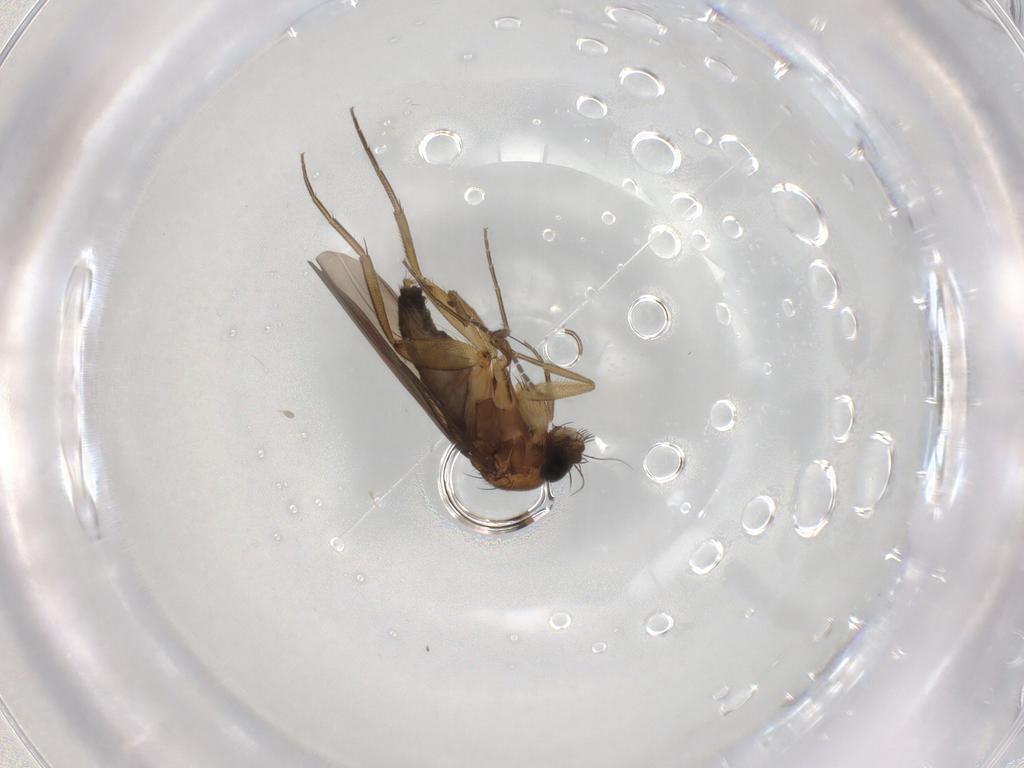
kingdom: Animalia
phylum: Arthropoda
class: Insecta
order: Diptera
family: Phoridae
